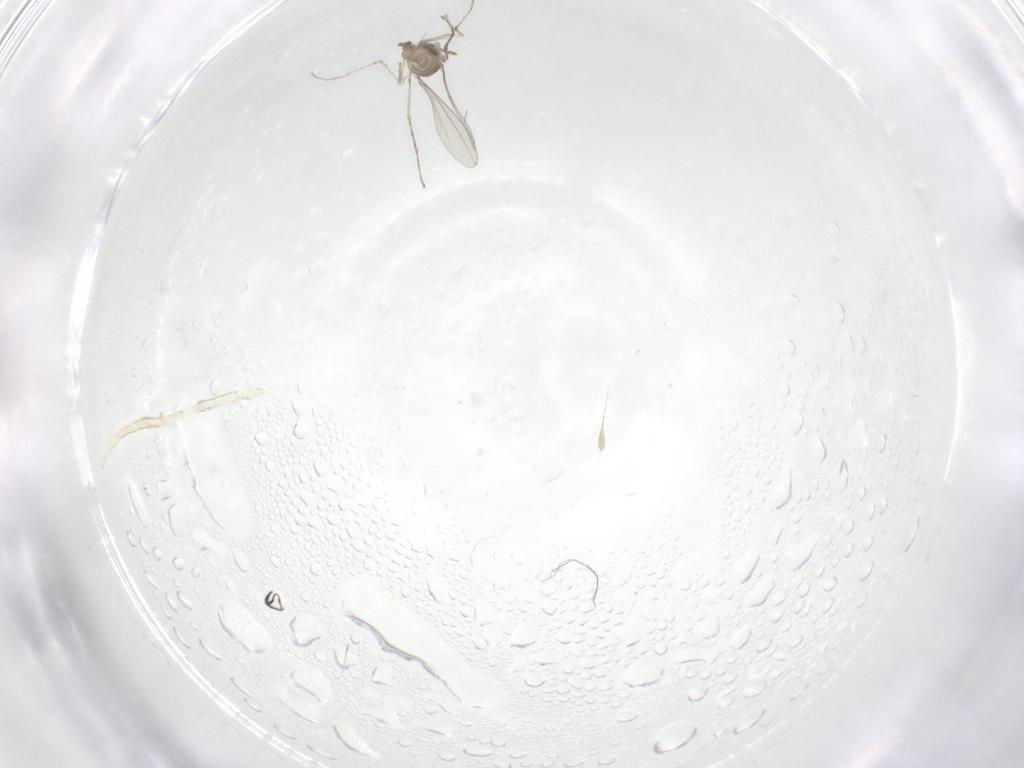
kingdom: Animalia
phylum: Arthropoda
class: Insecta
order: Diptera
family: Cecidomyiidae
